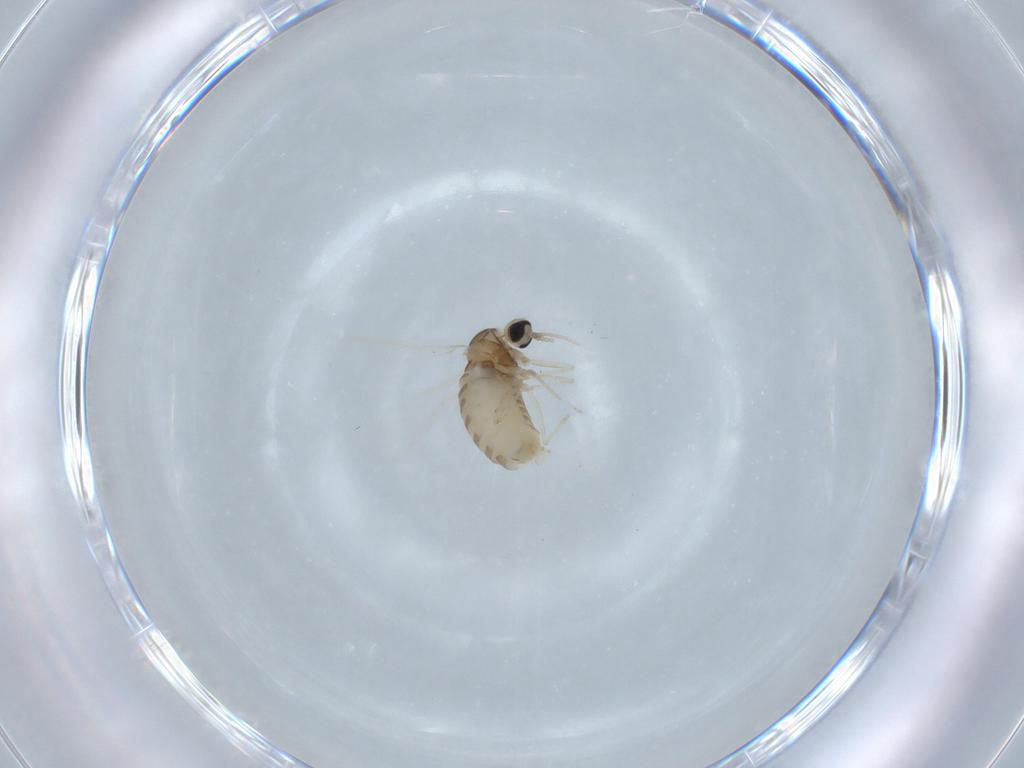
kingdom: Animalia
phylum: Arthropoda
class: Insecta
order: Diptera
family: Cecidomyiidae
